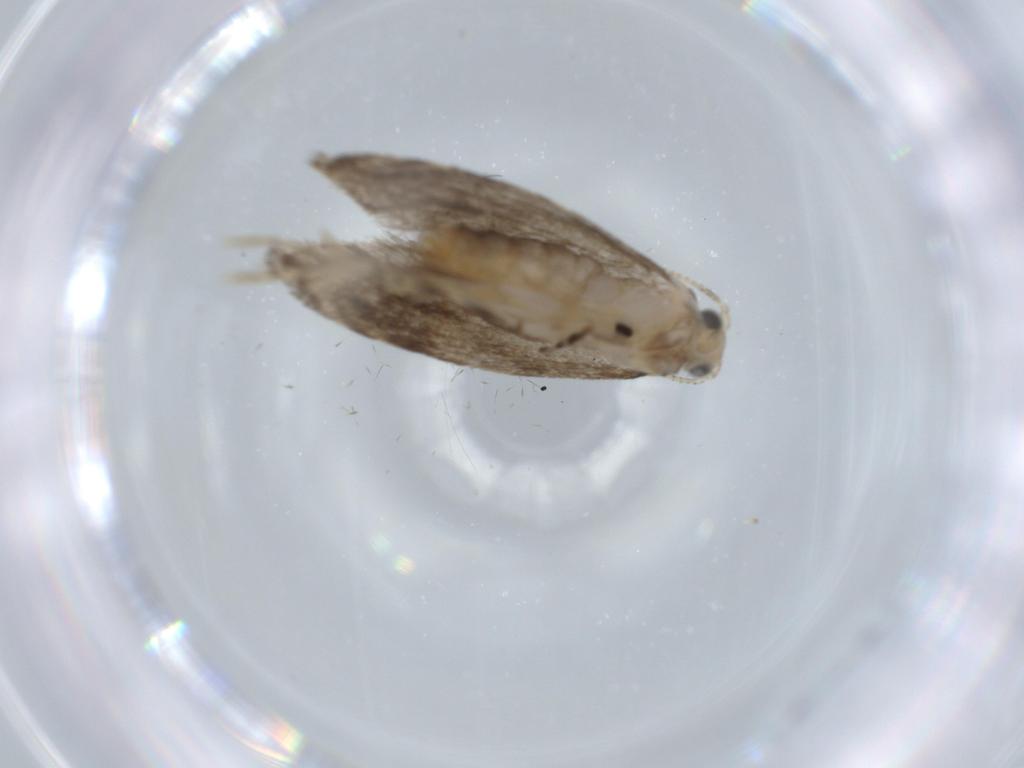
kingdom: Animalia
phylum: Arthropoda
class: Insecta
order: Lepidoptera
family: Tineidae
